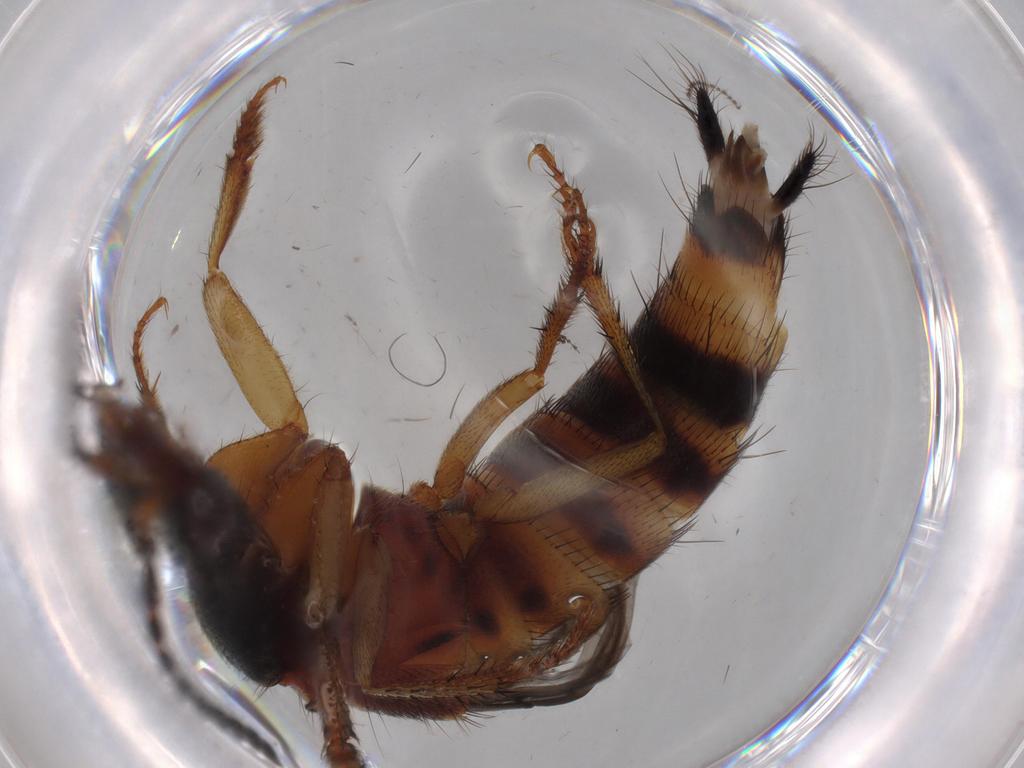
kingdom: Animalia
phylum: Arthropoda
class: Insecta
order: Coleoptera
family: Staphylinidae
